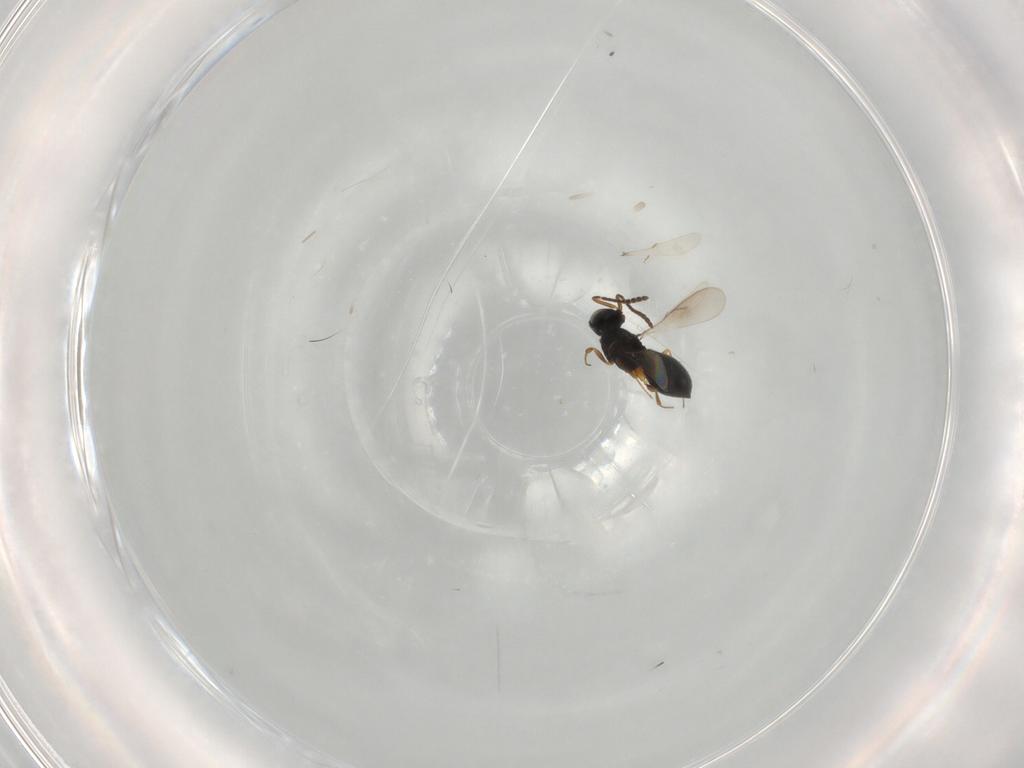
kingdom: Animalia
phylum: Arthropoda
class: Insecta
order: Hymenoptera
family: Scelionidae
